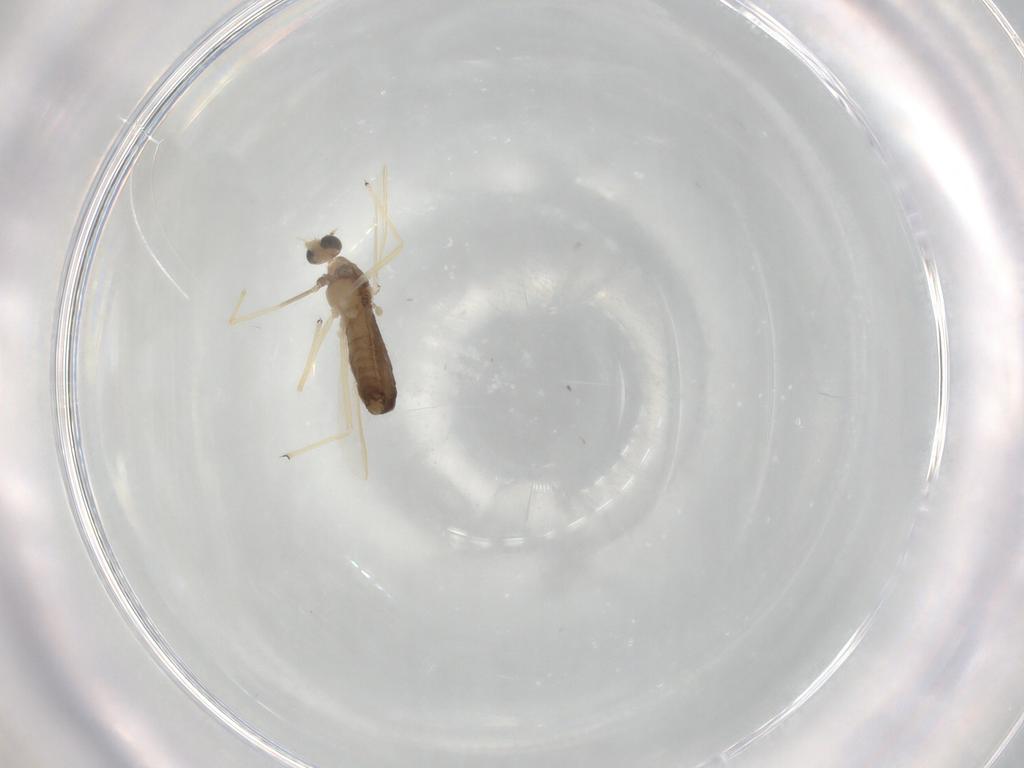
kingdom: Animalia
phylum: Arthropoda
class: Insecta
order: Diptera
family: Chironomidae
